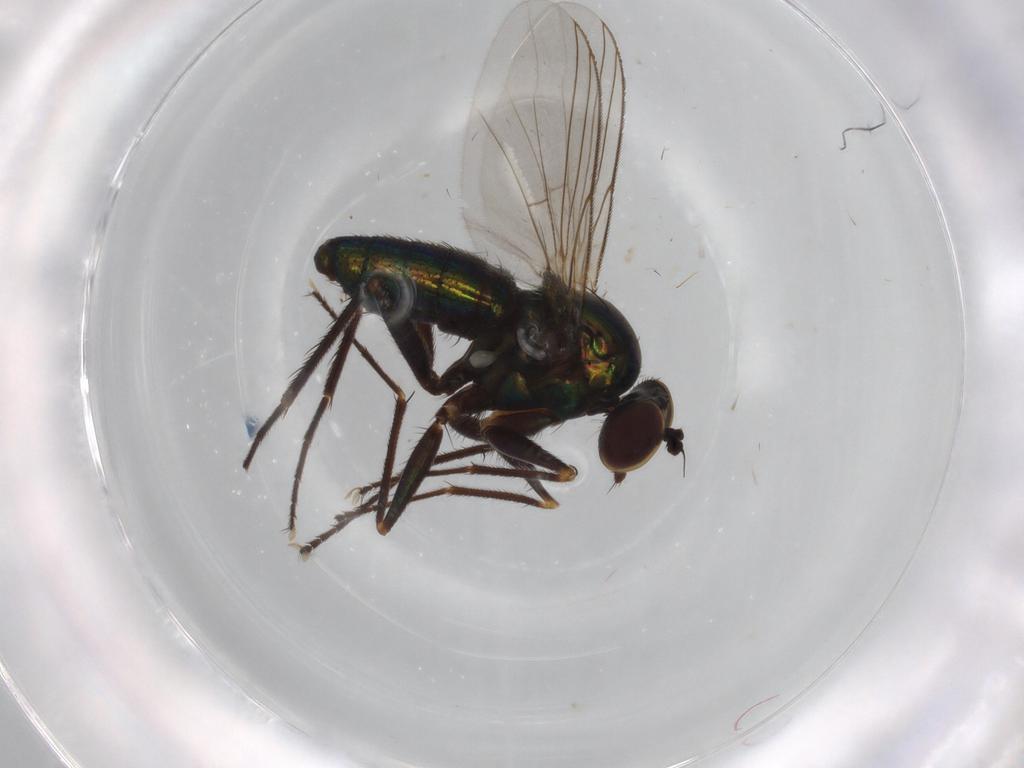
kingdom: Animalia
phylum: Arthropoda
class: Insecta
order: Diptera
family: Dolichopodidae
